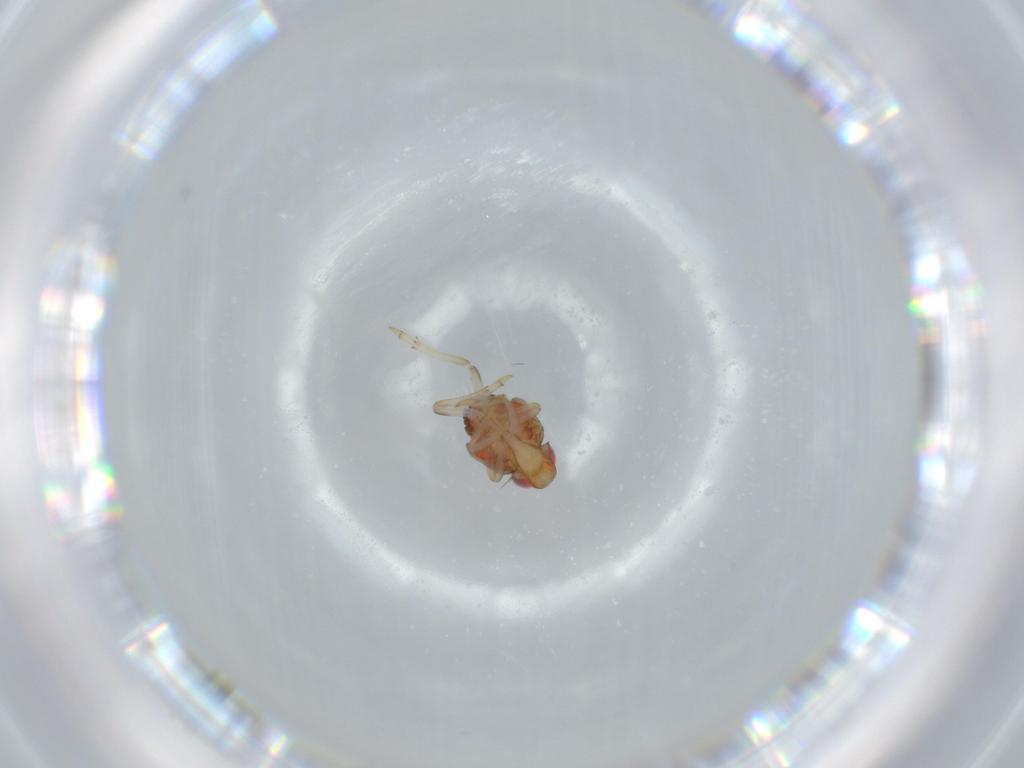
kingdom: Animalia
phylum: Arthropoda
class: Insecta
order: Hemiptera
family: Issidae
